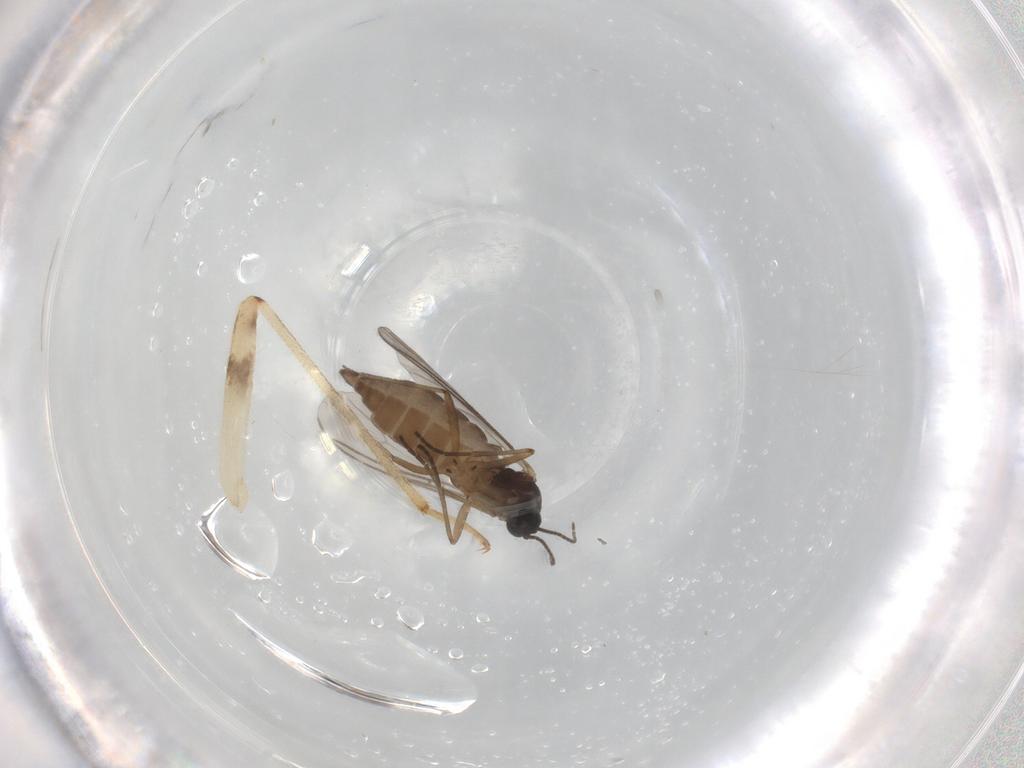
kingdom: Animalia
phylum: Arthropoda
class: Insecta
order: Diptera
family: Sciaridae
